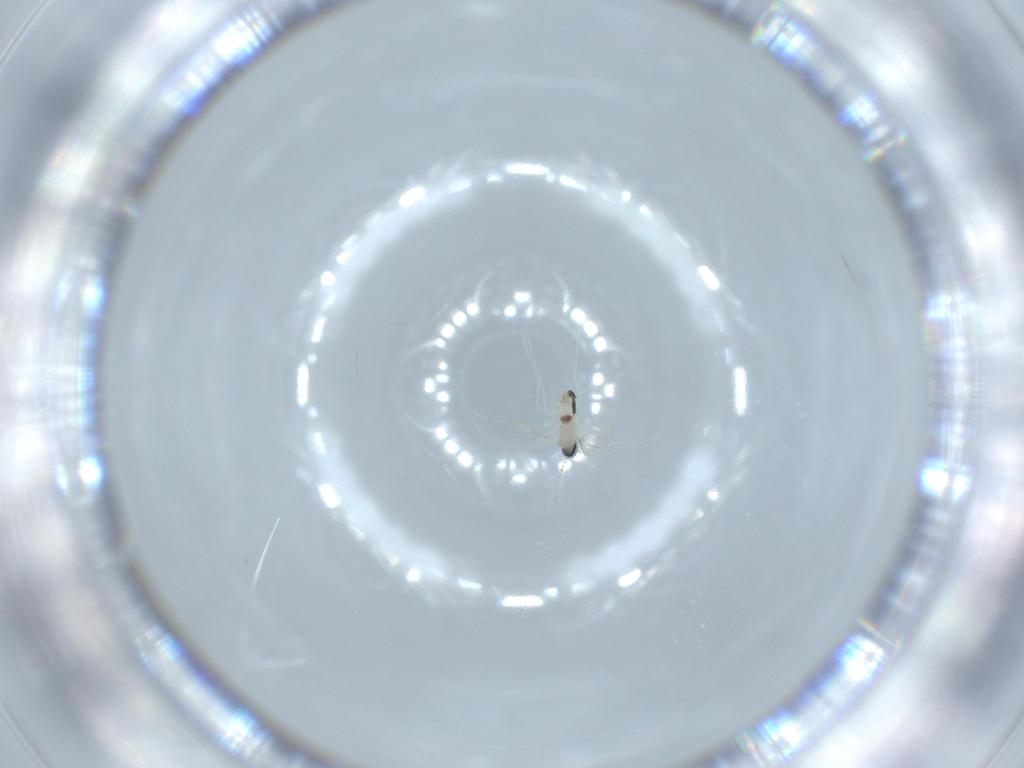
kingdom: Animalia
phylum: Arthropoda
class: Insecta
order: Diptera
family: Cecidomyiidae
